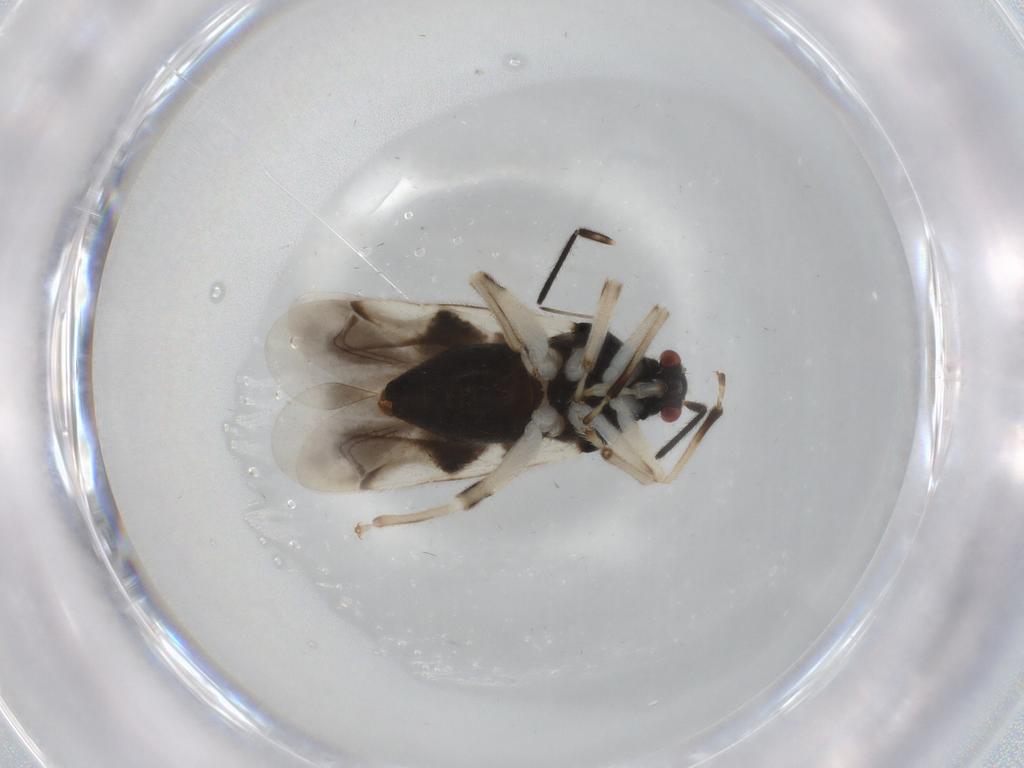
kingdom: Animalia
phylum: Arthropoda
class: Insecta
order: Hemiptera
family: Miridae
